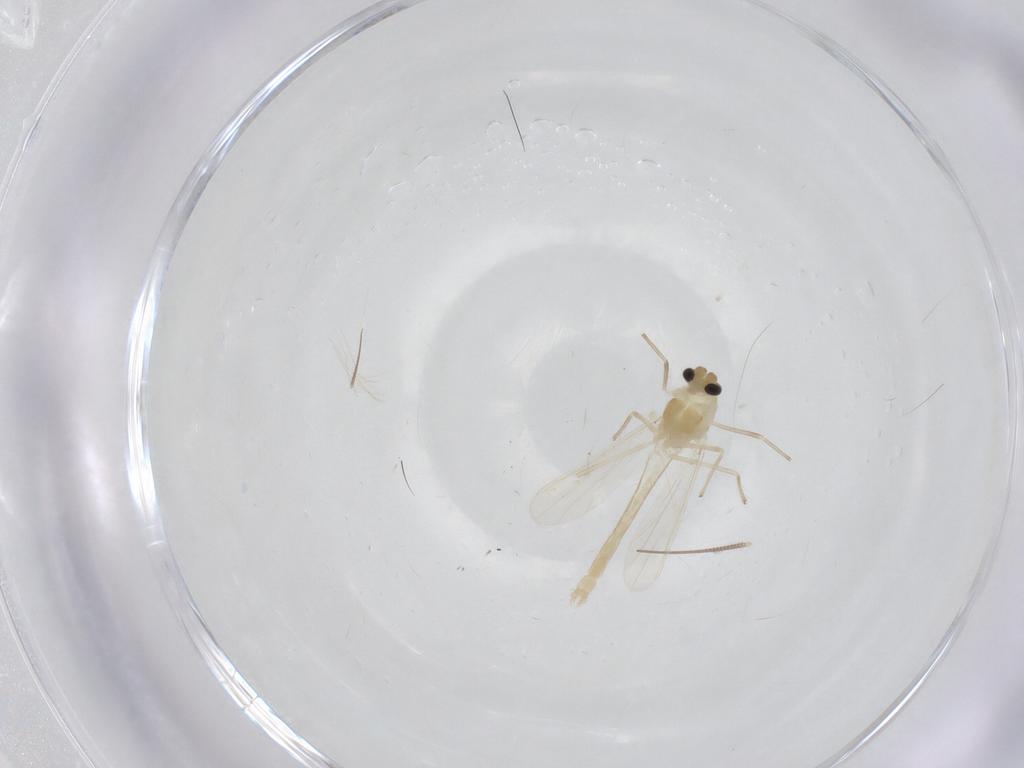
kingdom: Animalia
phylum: Arthropoda
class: Insecta
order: Diptera
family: Chironomidae
